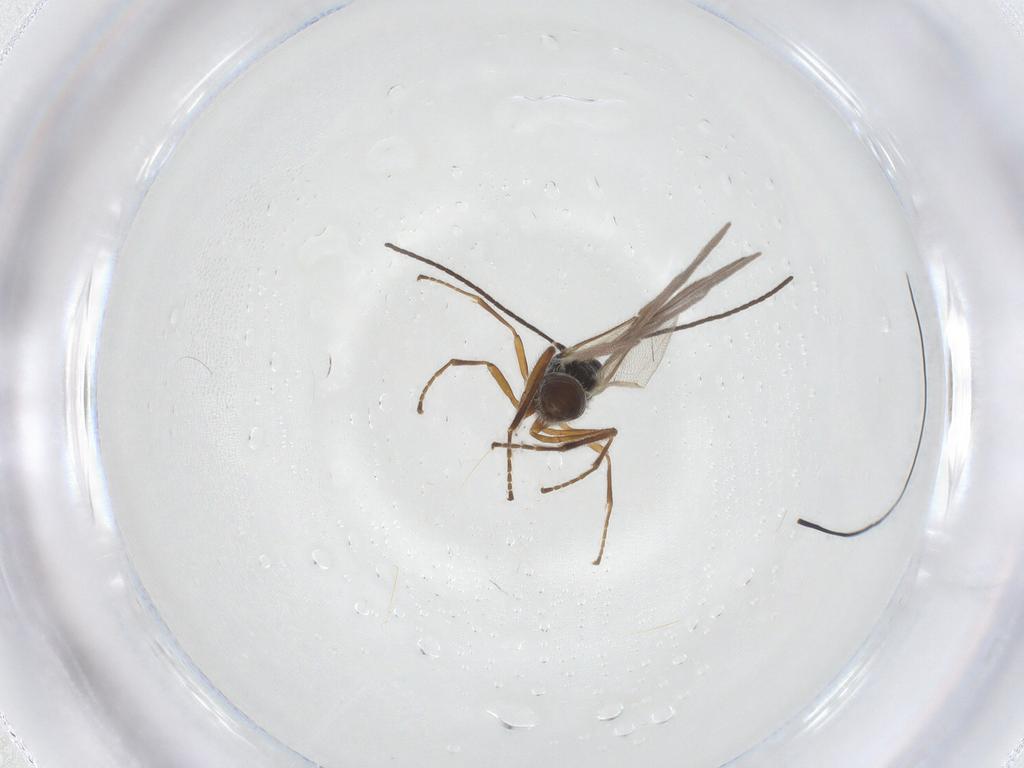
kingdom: Animalia
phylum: Arthropoda
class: Insecta
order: Hymenoptera
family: Braconidae
